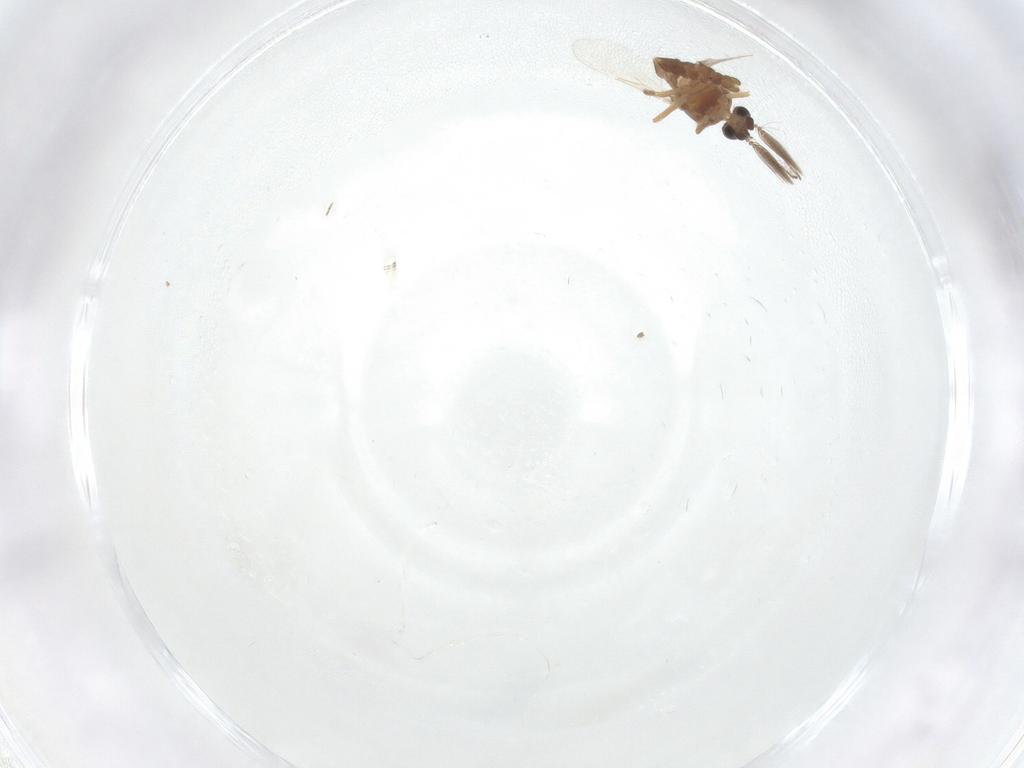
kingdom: Animalia
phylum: Arthropoda
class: Insecta
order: Diptera
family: Ceratopogonidae
